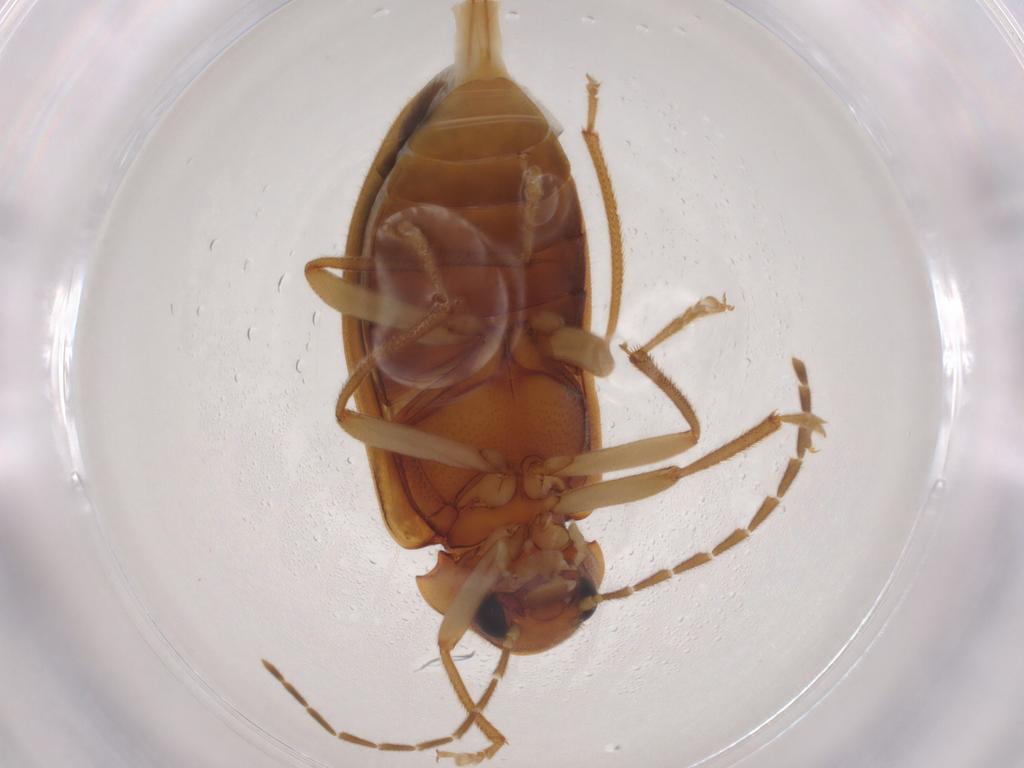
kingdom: Animalia
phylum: Arthropoda
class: Insecta
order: Coleoptera
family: Ptilodactylidae
